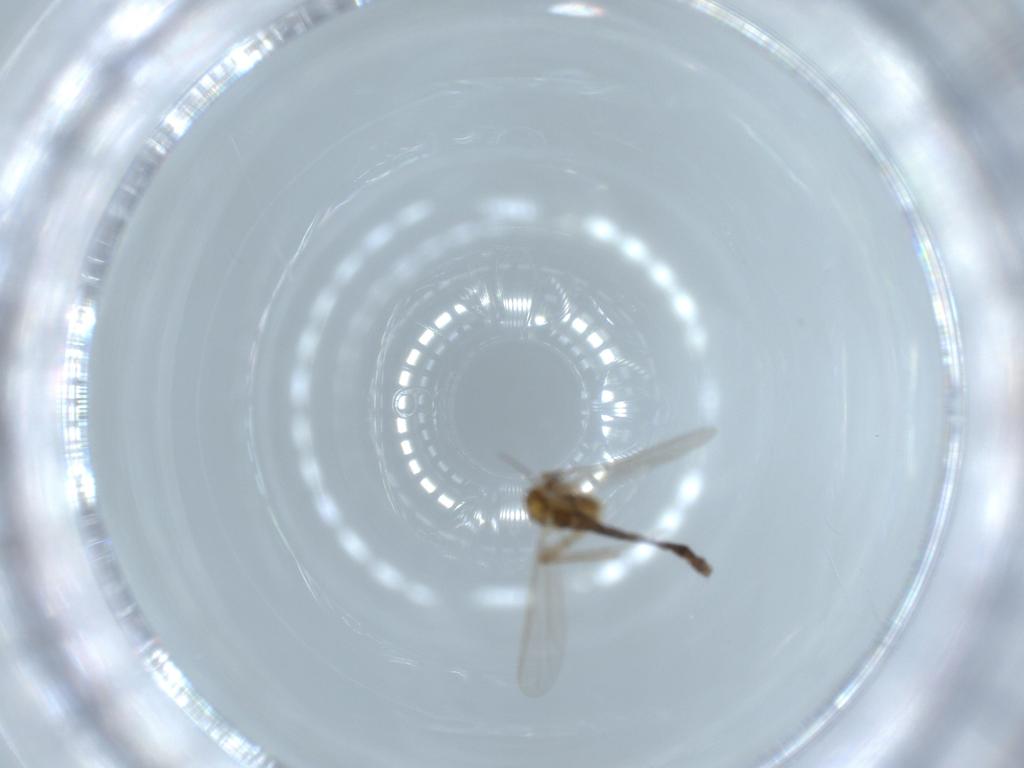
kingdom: Animalia
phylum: Arthropoda
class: Insecta
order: Diptera
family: Chironomidae
